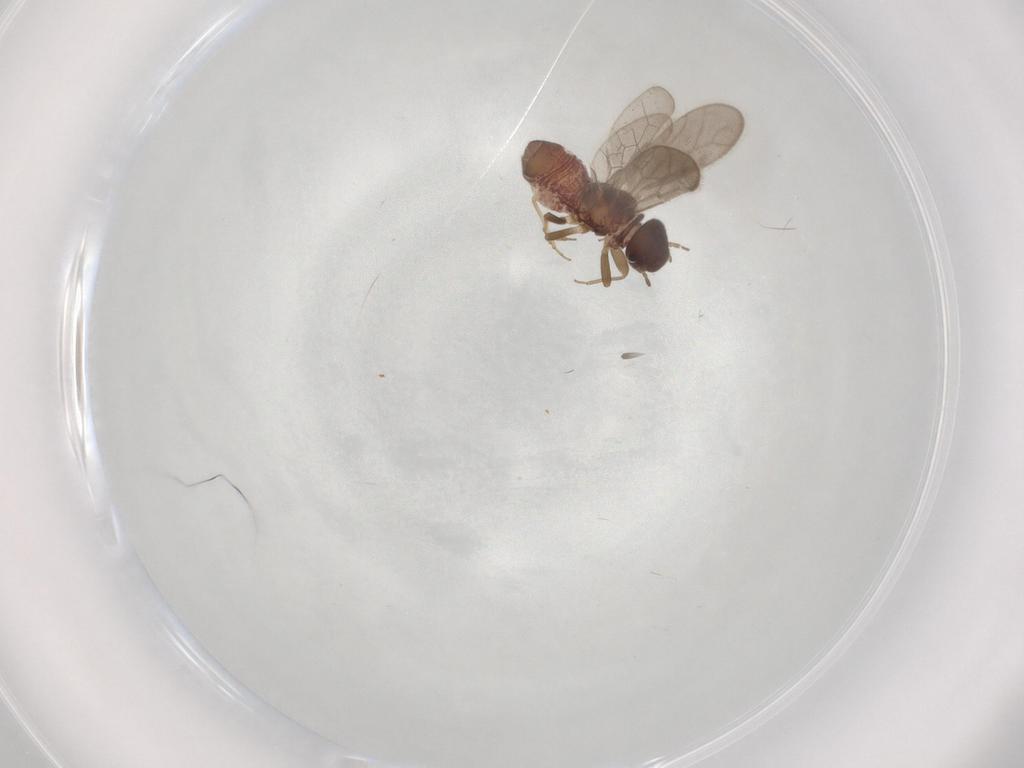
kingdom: Animalia
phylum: Arthropoda
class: Insecta
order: Psocodea
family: Archipsocidae
